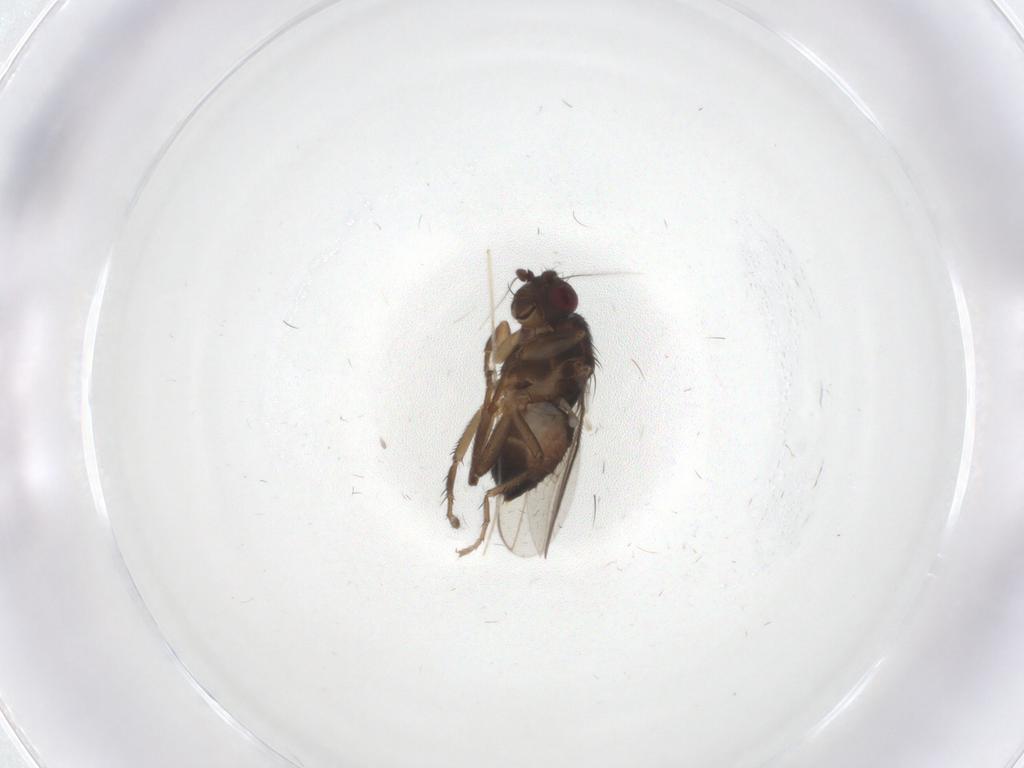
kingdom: Animalia
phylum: Arthropoda
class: Insecta
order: Diptera
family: Sphaeroceridae
